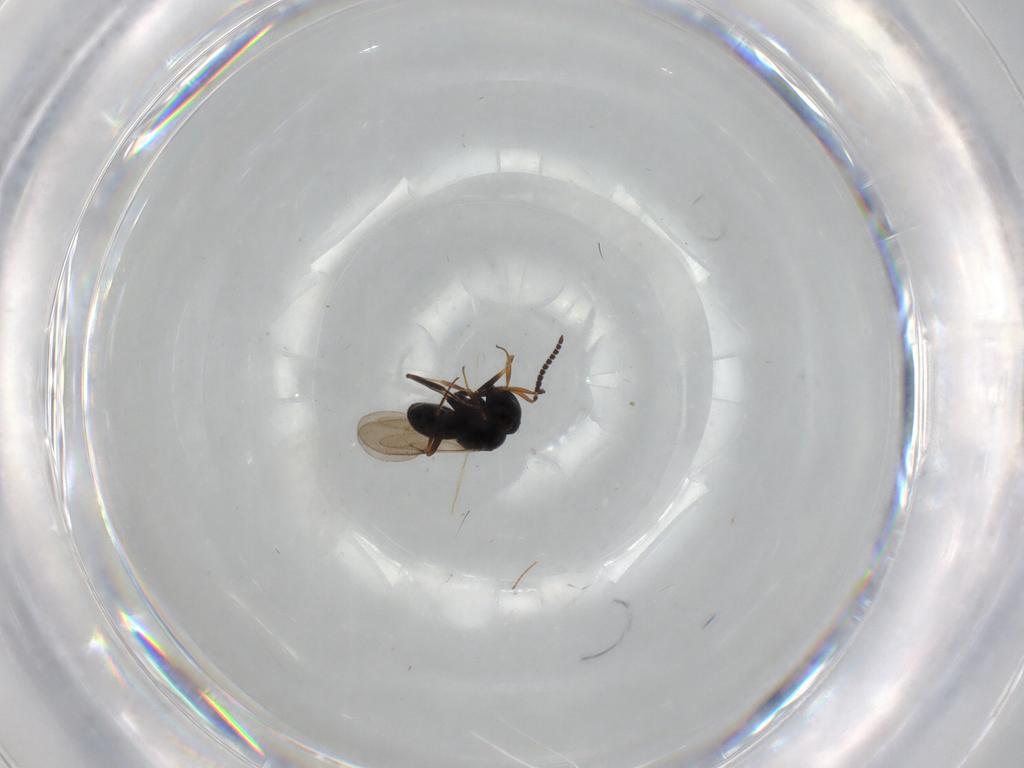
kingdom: Animalia
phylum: Arthropoda
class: Insecta
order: Hymenoptera
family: Scelionidae
